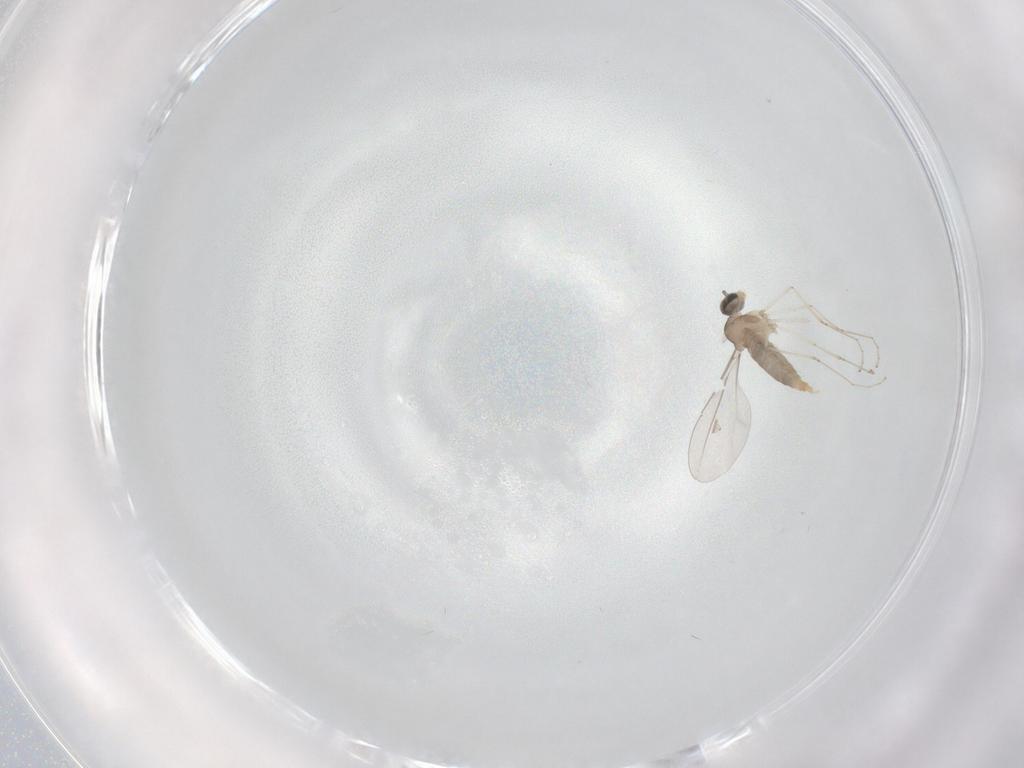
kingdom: Animalia
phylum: Arthropoda
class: Insecta
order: Diptera
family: Cecidomyiidae
